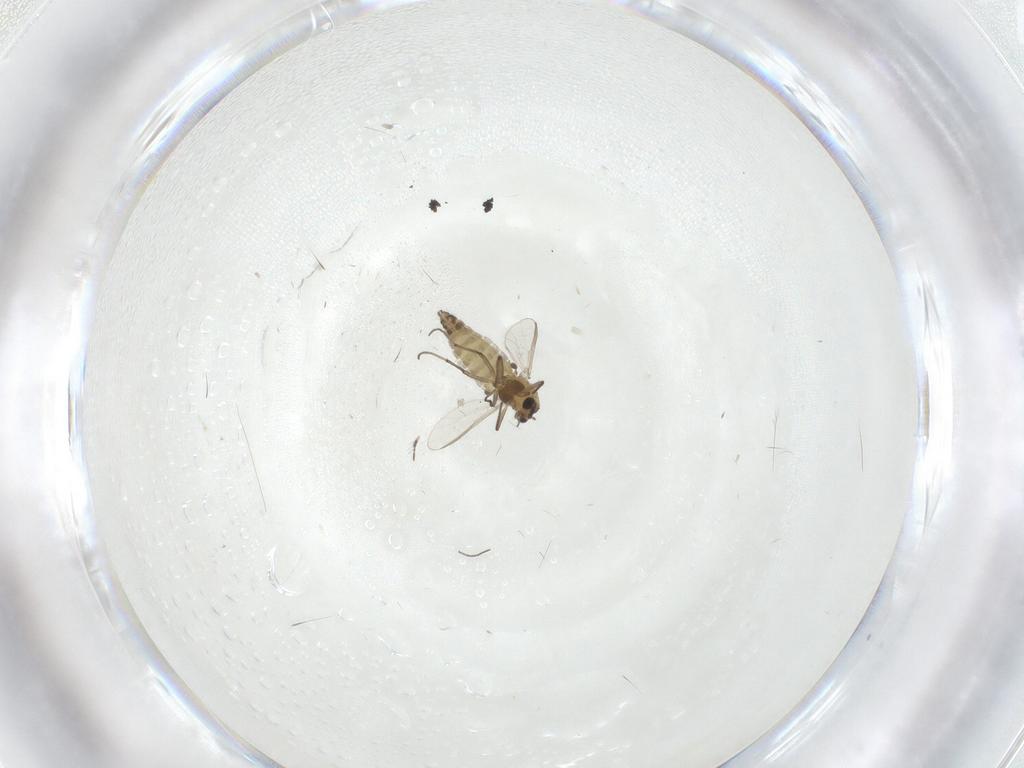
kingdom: Animalia
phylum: Arthropoda
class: Insecta
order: Diptera
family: Chironomidae
